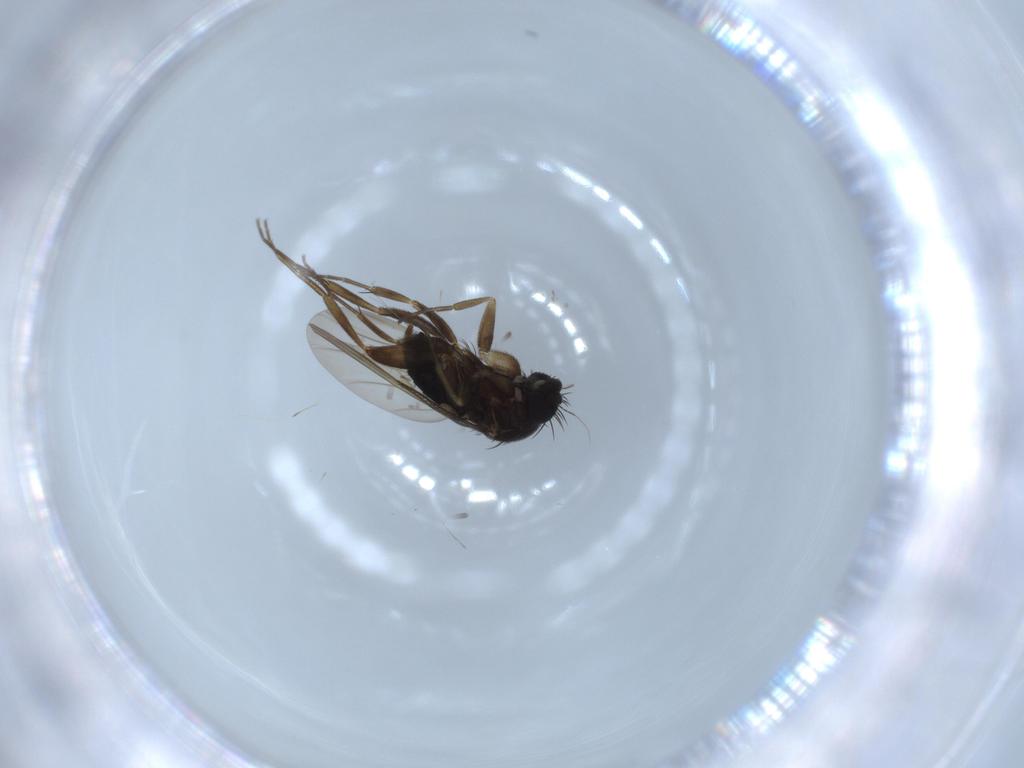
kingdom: Animalia
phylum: Arthropoda
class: Insecta
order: Diptera
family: Phoridae
